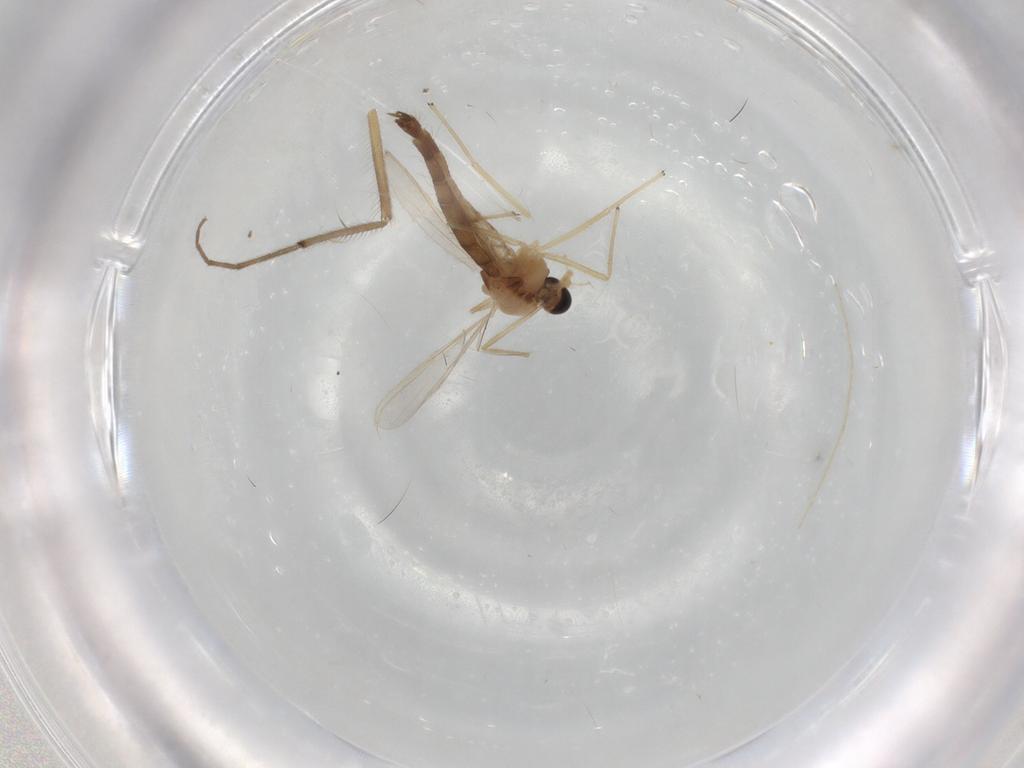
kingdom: Animalia
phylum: Arthropoda
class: Insecta
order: Diptera
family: Chironomidae
